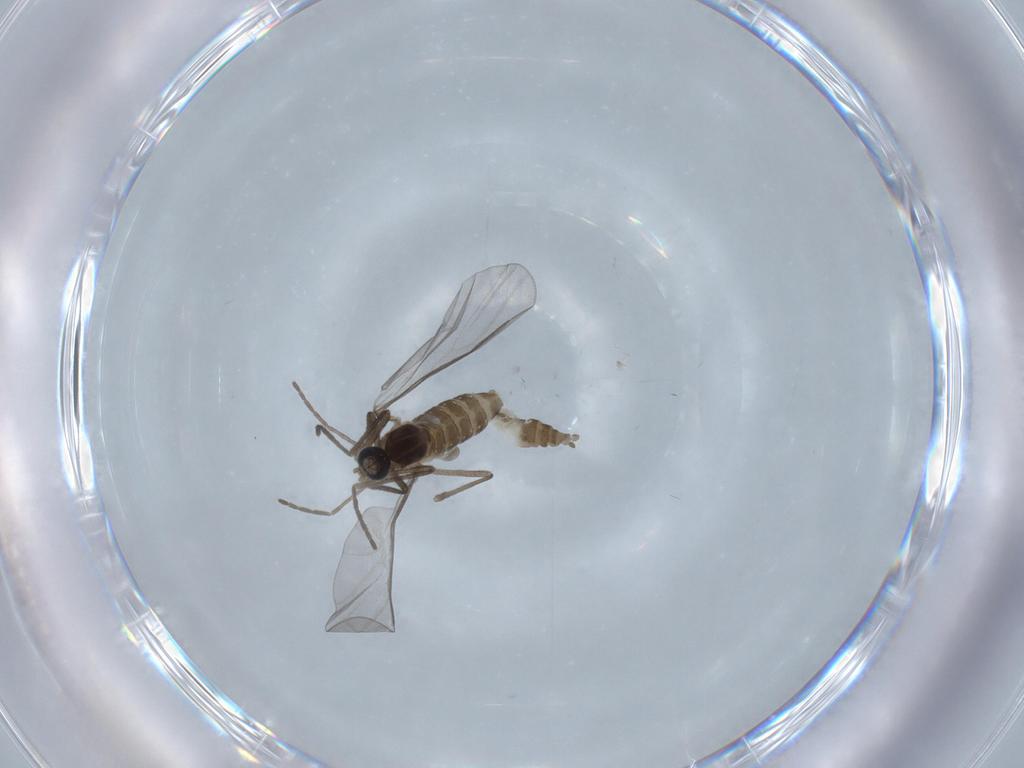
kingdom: Animalia
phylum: Arthropoda
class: Insecta
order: Diptera
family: Cecidomyiidae
